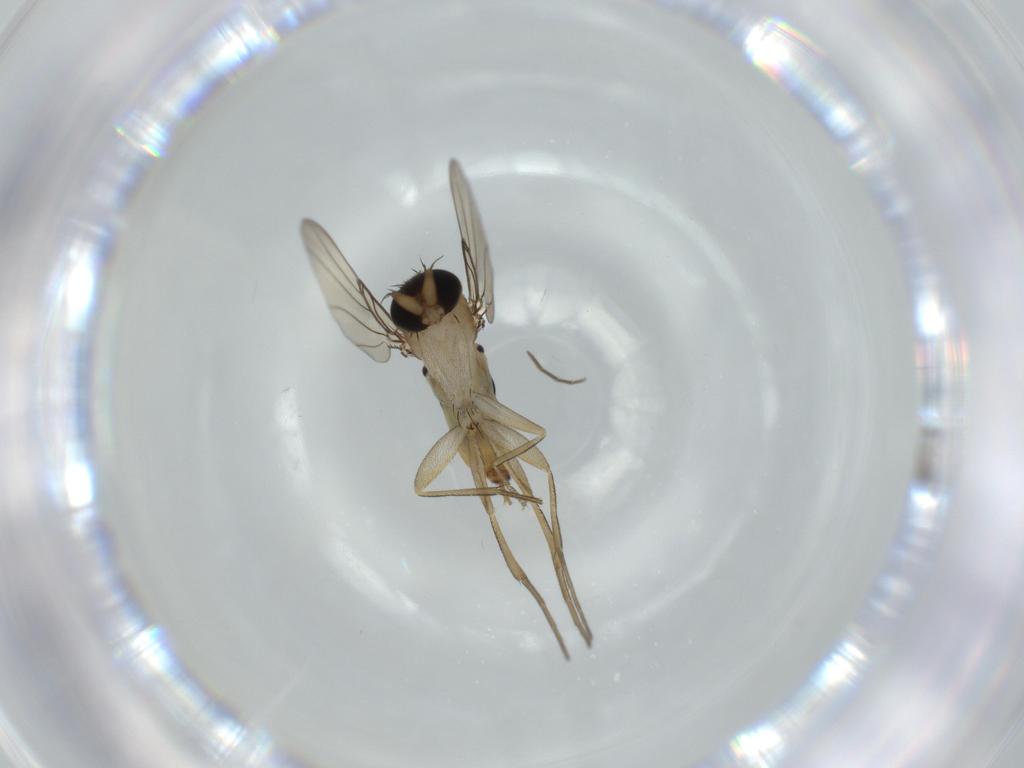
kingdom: Animalia
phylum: Arthropoda
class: Insecta
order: Diptera
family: Phoridae
